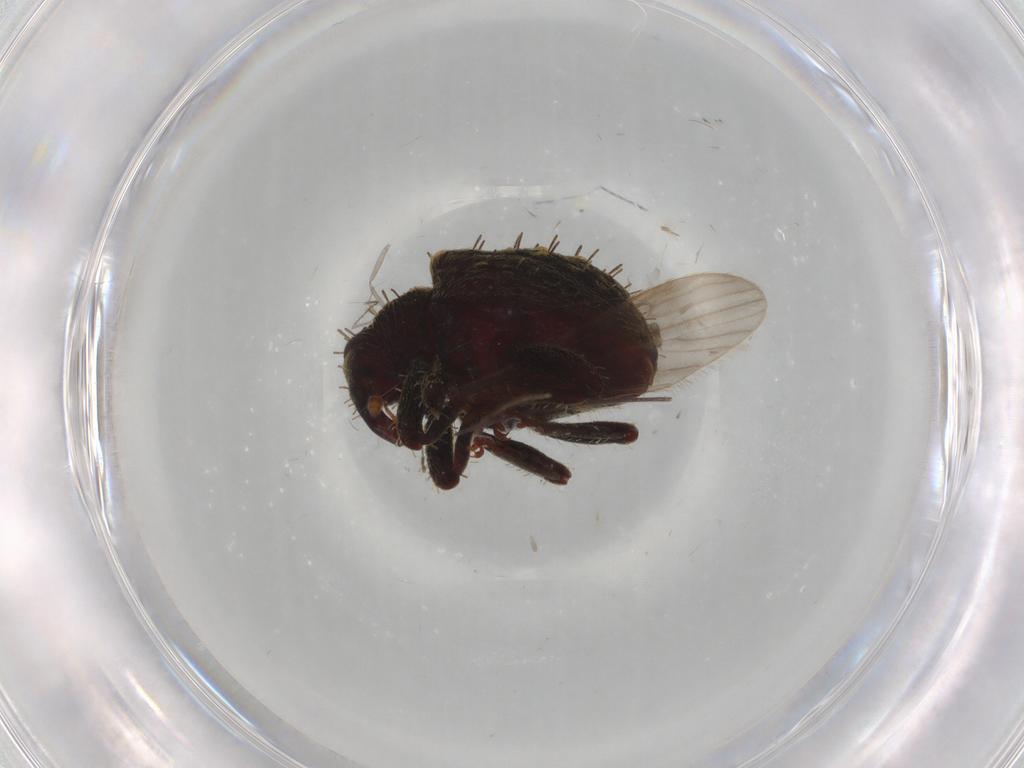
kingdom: Animalia
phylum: Arthropoda
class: Insecta
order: Coleoptera
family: Curculionidae
